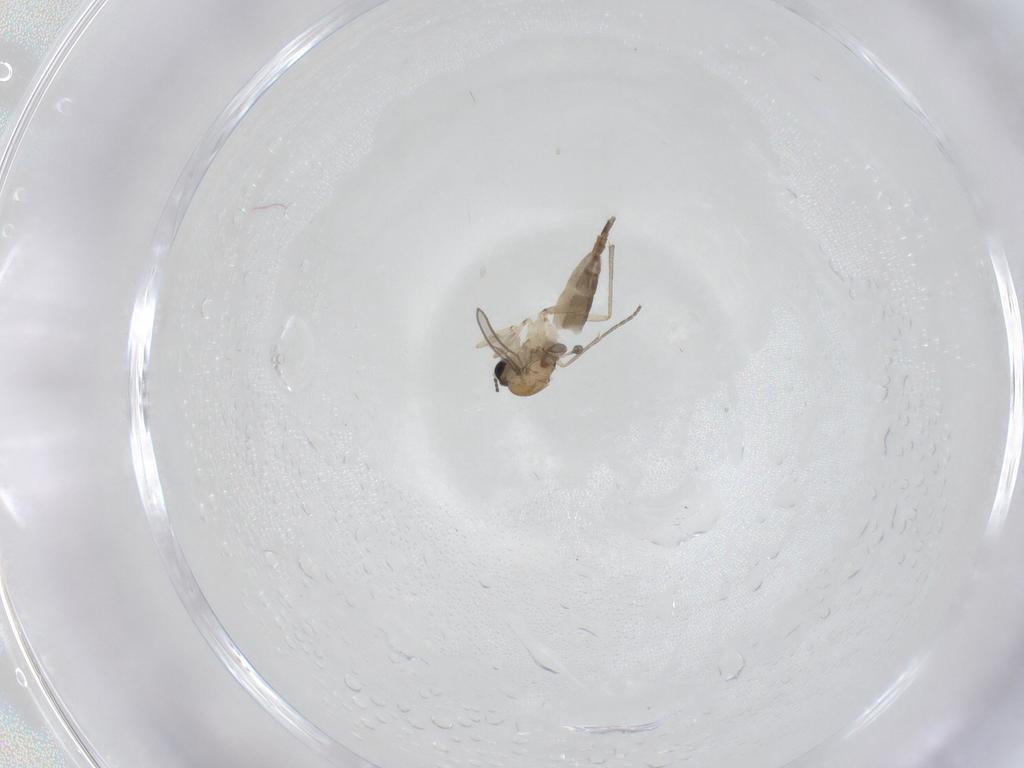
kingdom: Animalia
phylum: Arthropoda
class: Insecta
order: Diptera
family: Sciaridae
